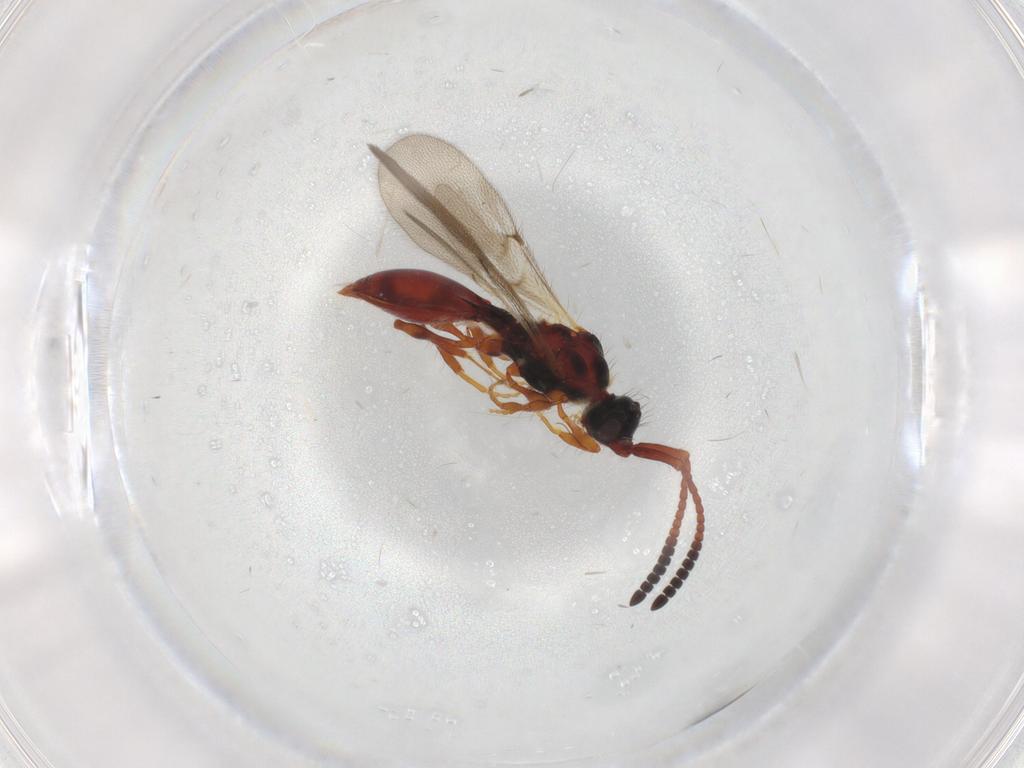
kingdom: Animalia
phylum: Arthropoda
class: Insecta
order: Hymenoptera
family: Diapriidae
